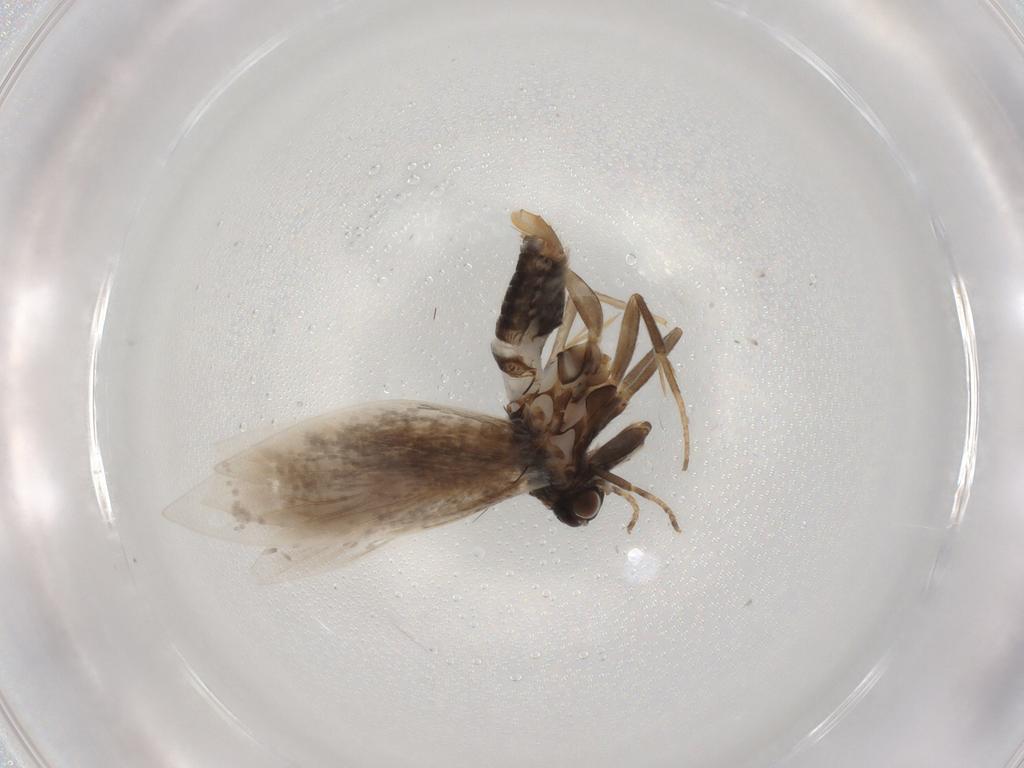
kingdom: Animalia
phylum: Arthropoda
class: Insecta
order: Lepidoptera
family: Incurvariidae
